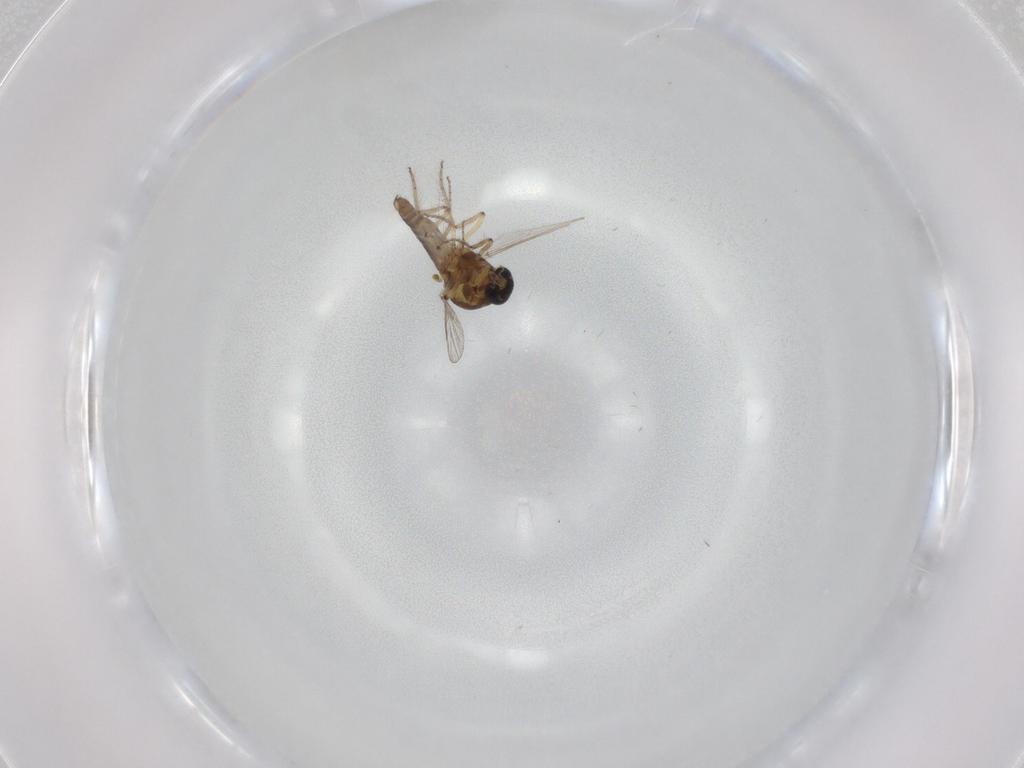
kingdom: Animalia
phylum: Arthropoda
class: Insecta
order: Diptera
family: Ceratopogonidae
